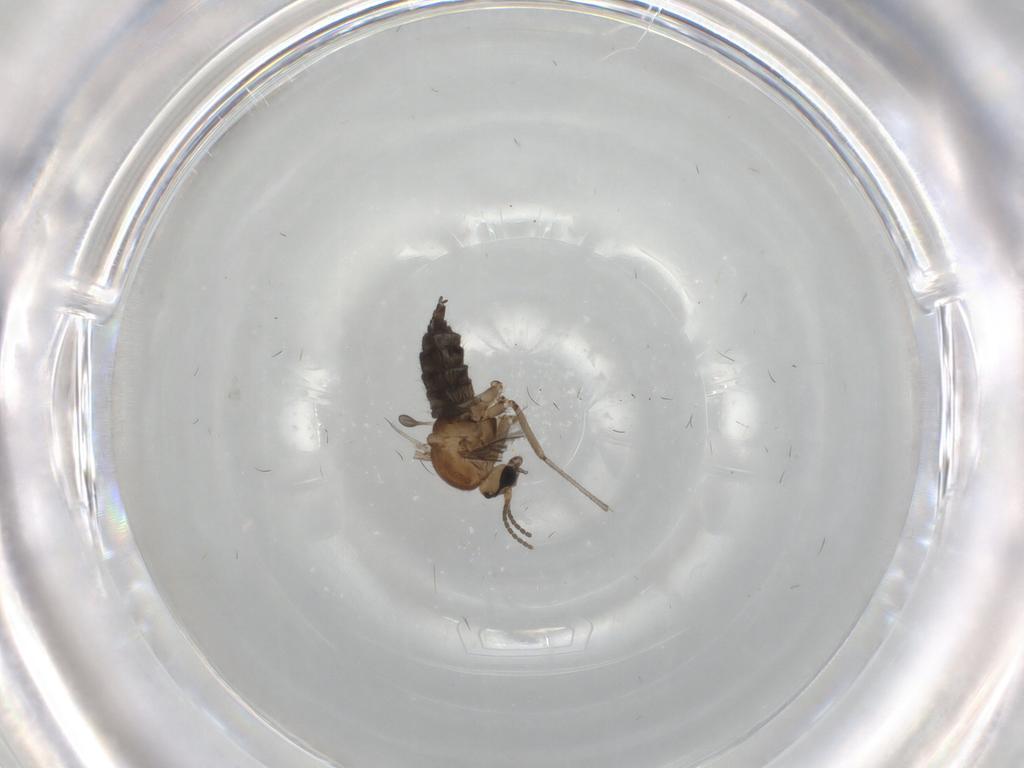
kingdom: Animalia
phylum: Arthropoda
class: Insecta
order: Diptera
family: Sciaridae
